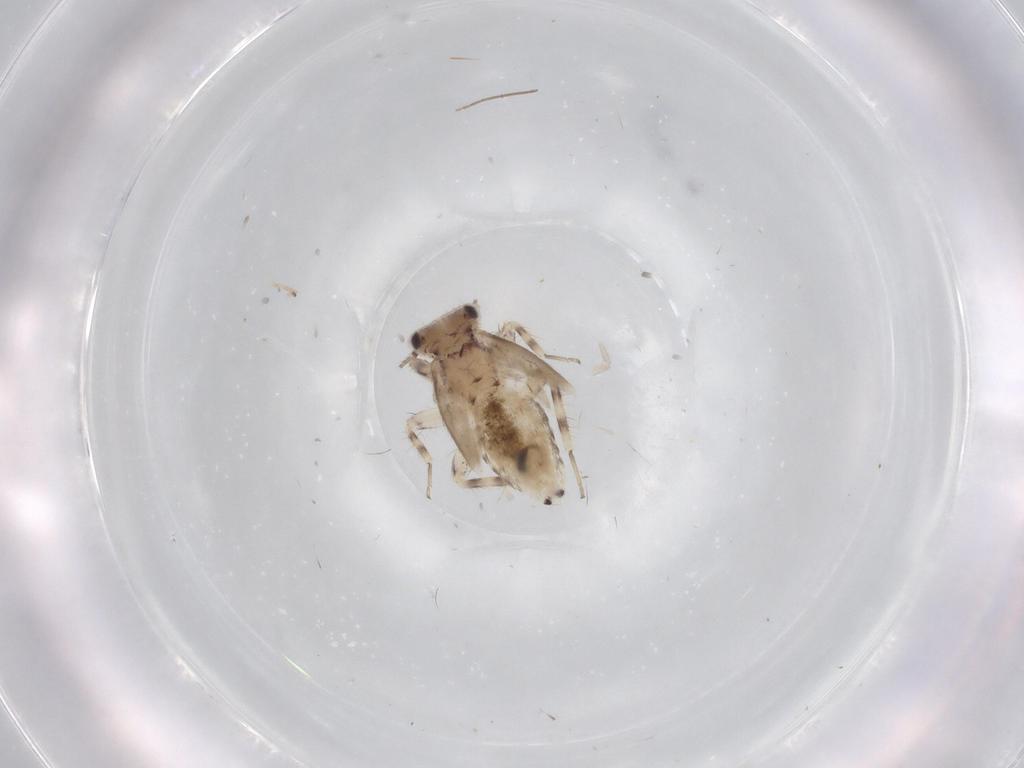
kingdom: Animalia
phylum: Arthropoda
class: Insecta
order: Psocodea
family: Lepidopsocidae
